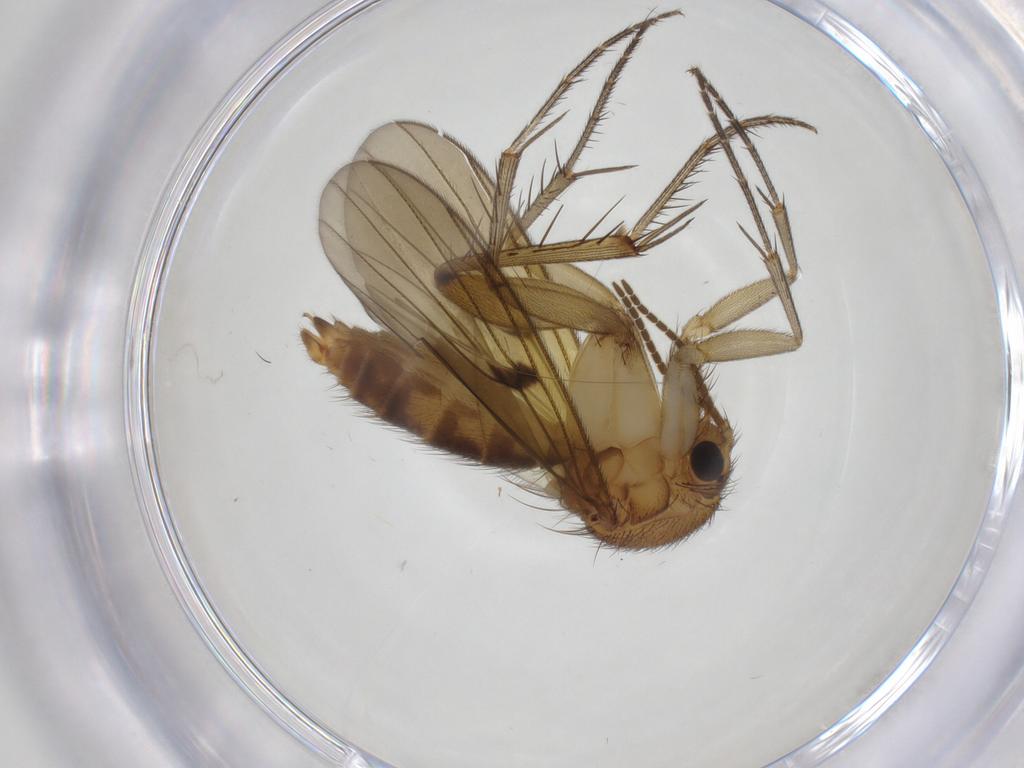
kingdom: Animalia
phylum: Arthropoda
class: Insecta
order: Diptera
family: Mycetophilidae
